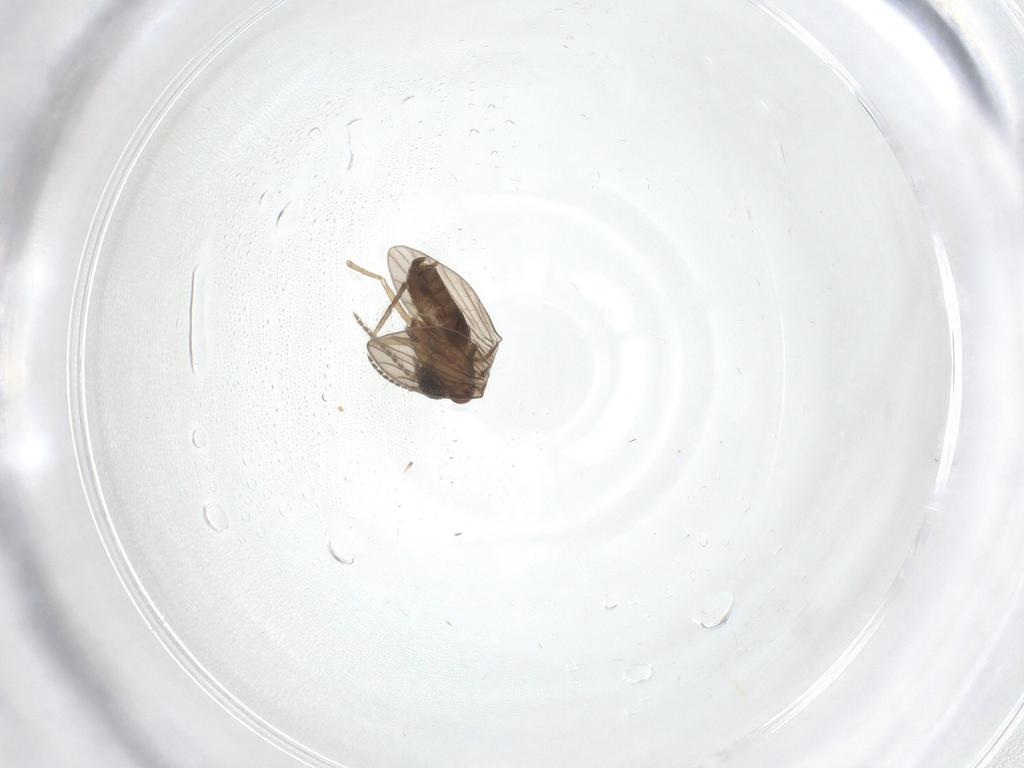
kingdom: Animalia
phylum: Arthropoda
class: Insecta
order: Diptera
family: Psychodidae
